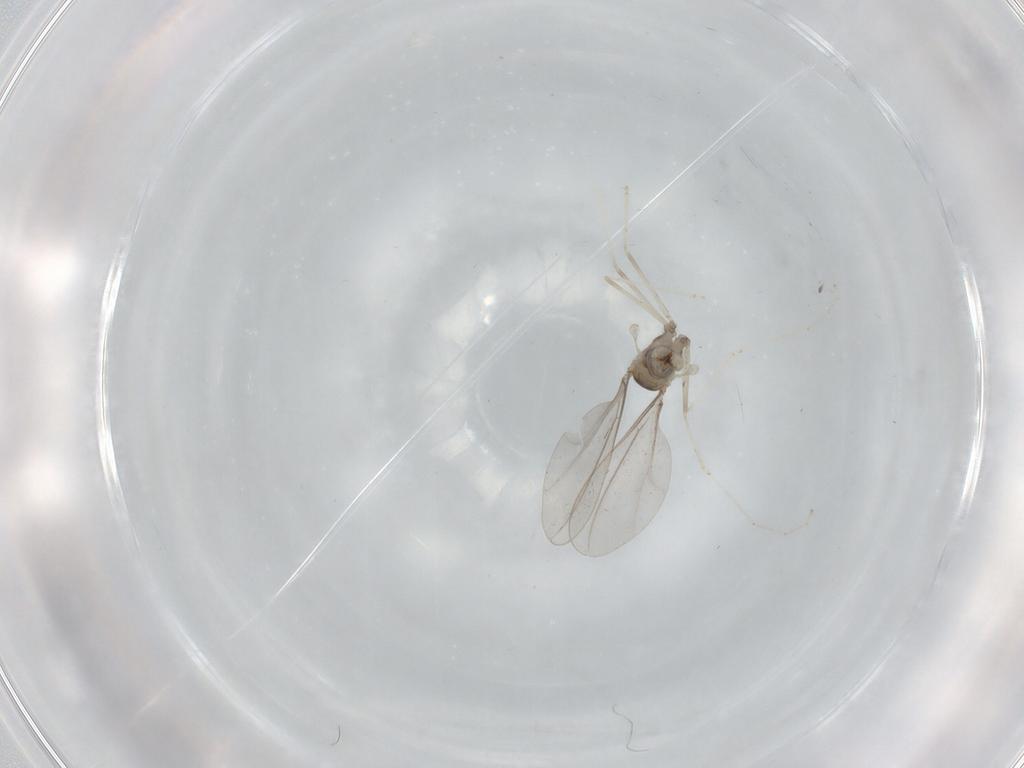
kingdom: Animalia
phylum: Arthropoda
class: Insecta
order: Diptera
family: Cecidomyiidae
